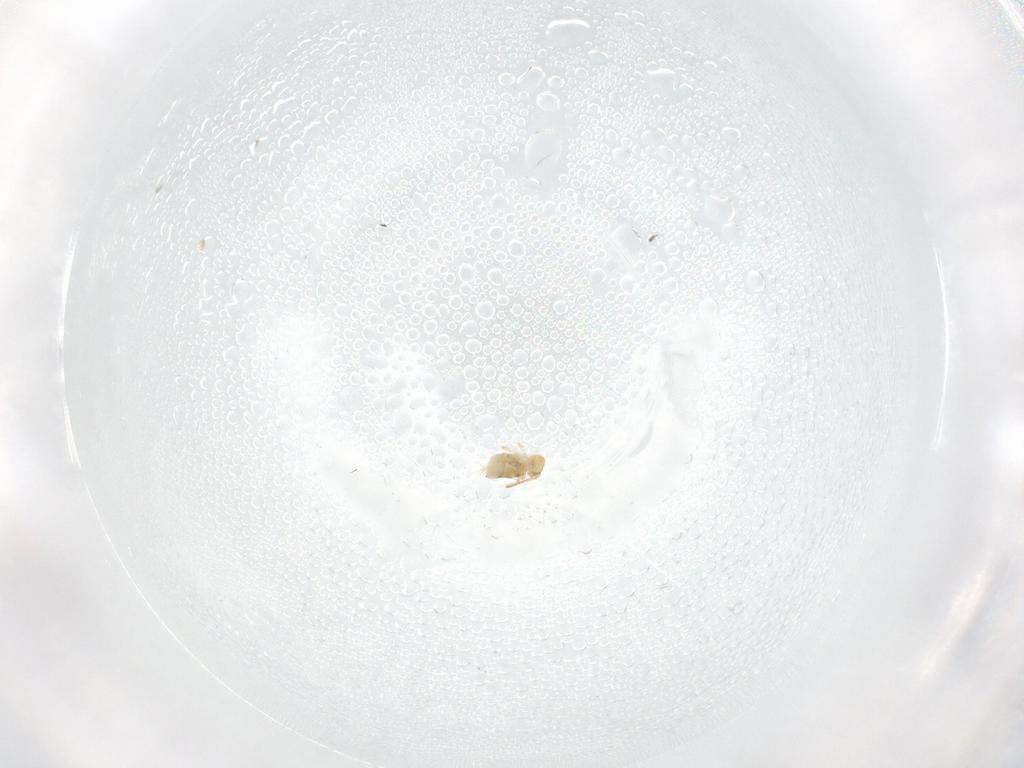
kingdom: Animalia
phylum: Arthropoda
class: Collembola
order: Symphypleona
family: Bourletiellidae
